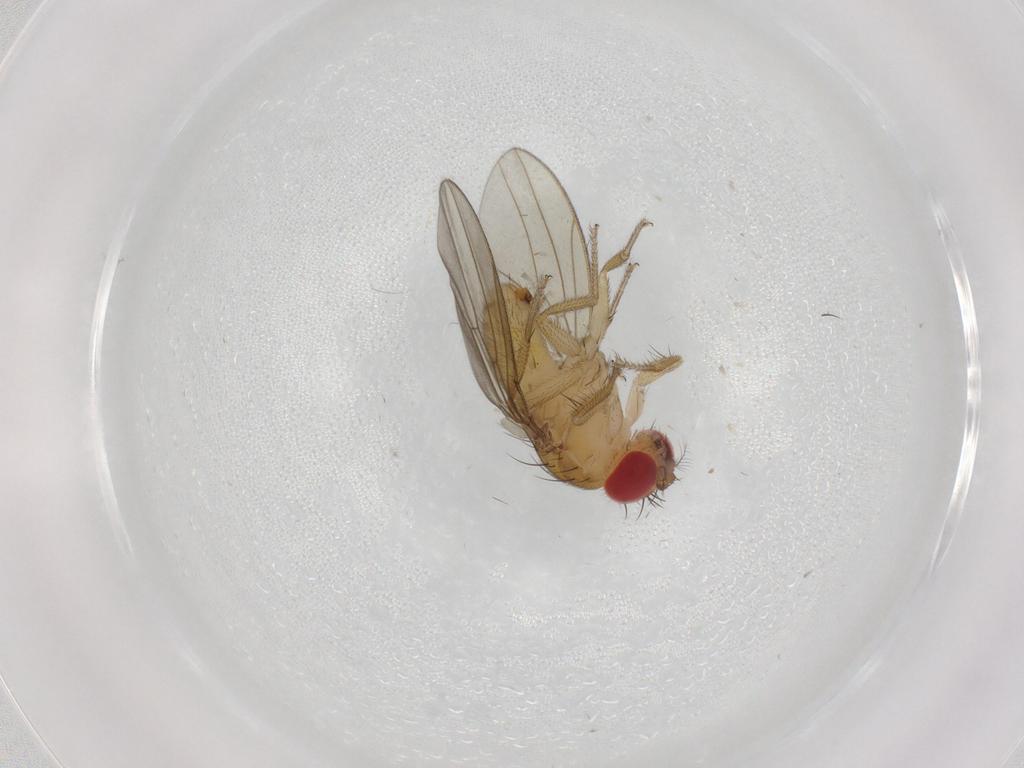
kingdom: Animalia
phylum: Arthropoda
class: Insecta
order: Diptera
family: Drosophilidae
